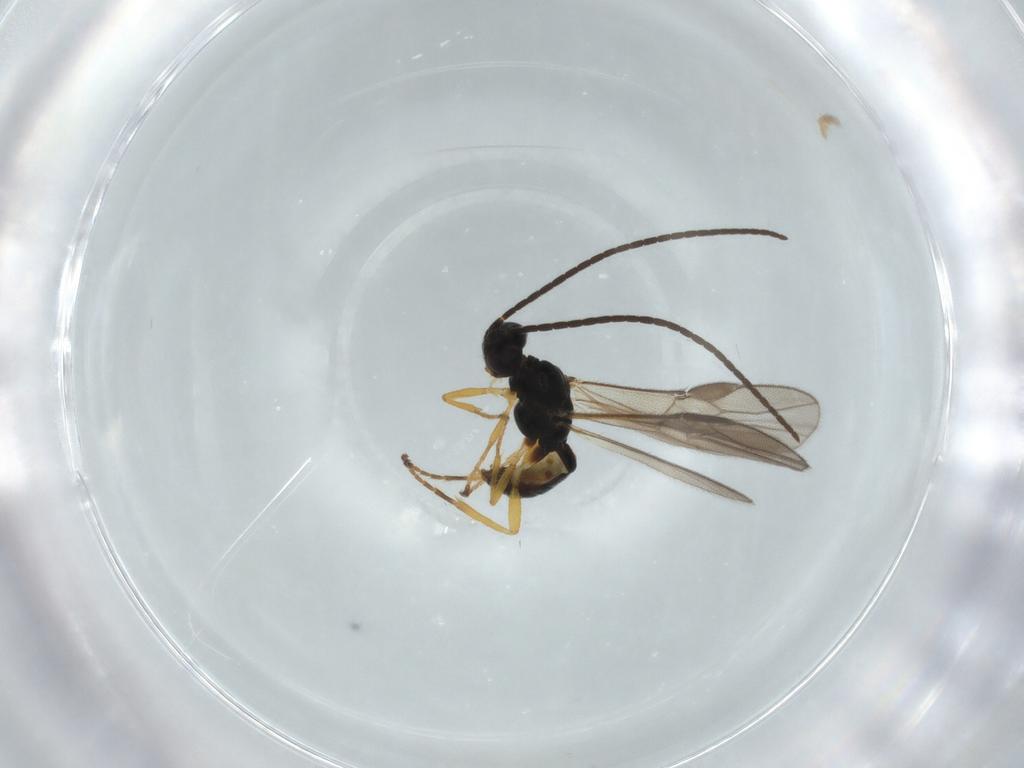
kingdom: Animalia
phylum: Arthropoda
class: Insecta
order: Hymenoptera
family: Braconidae
